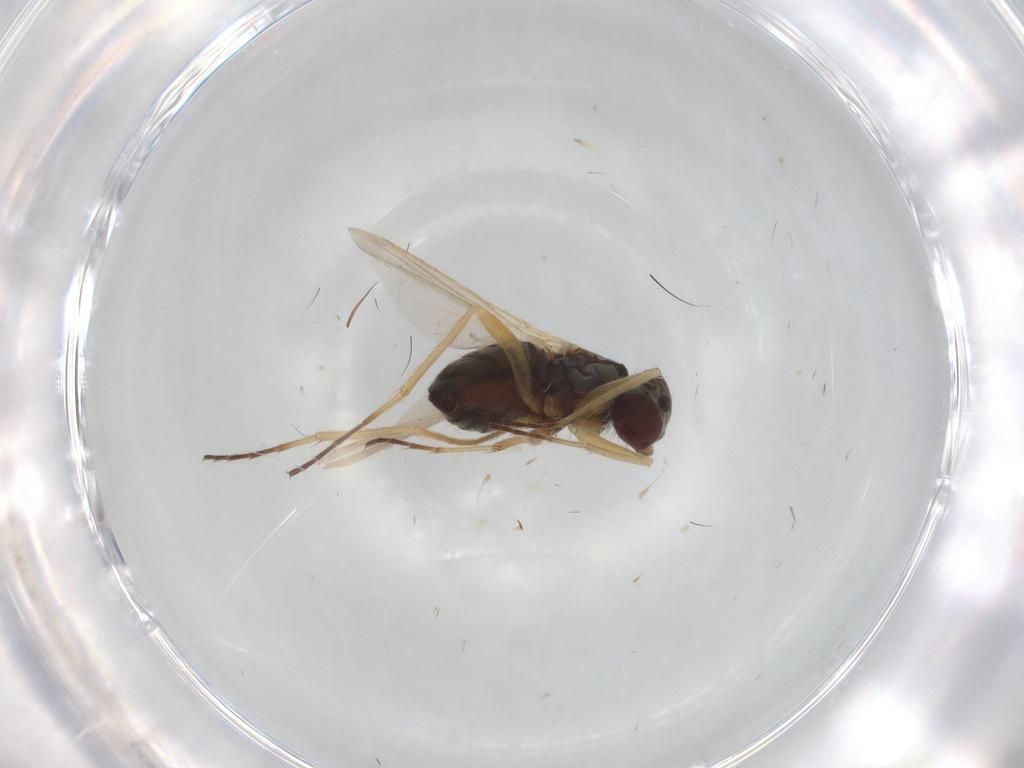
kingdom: Animalia
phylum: Arthropoda
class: Insecta
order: Diptera
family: Dolichopodidae
